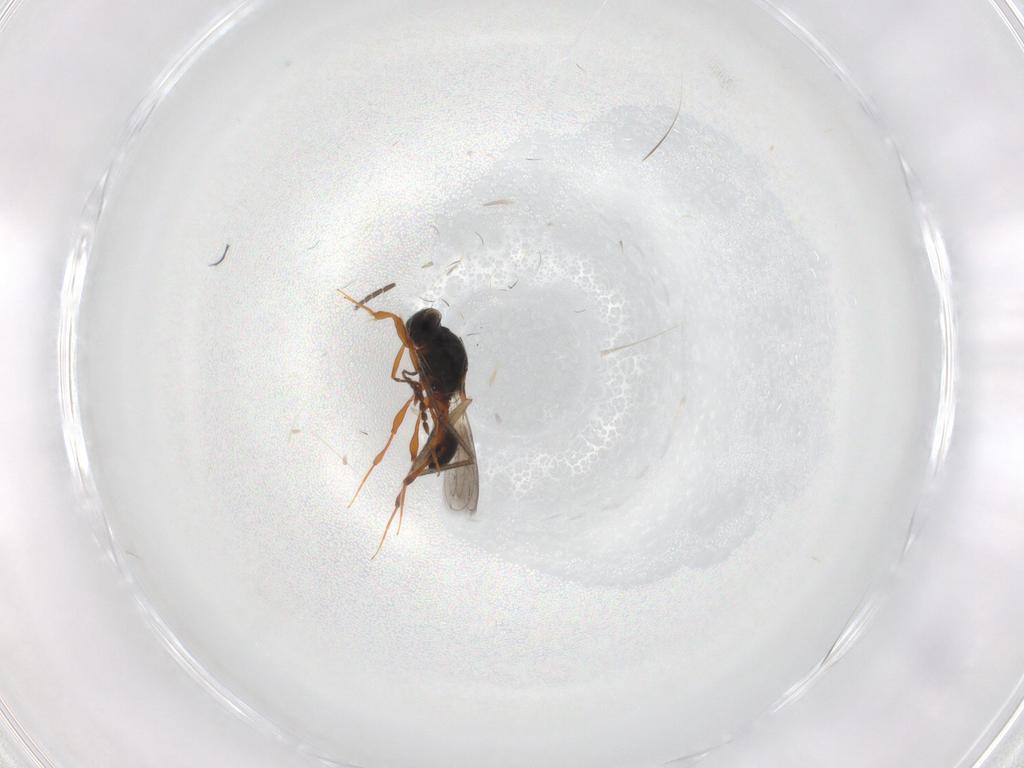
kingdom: Animalia
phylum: Arthropoda
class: Insecta
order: Hymenoptera
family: Platygastridae
